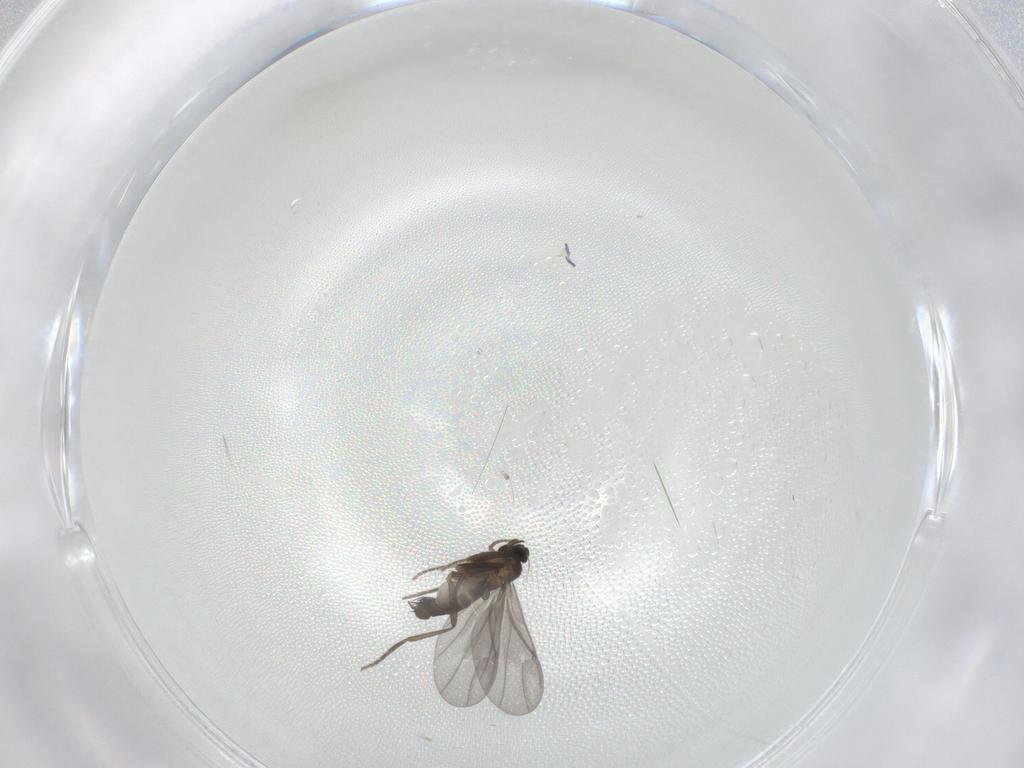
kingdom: Animalia
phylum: Arthropoda
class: Insecta
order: Diptera
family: Phoridae
